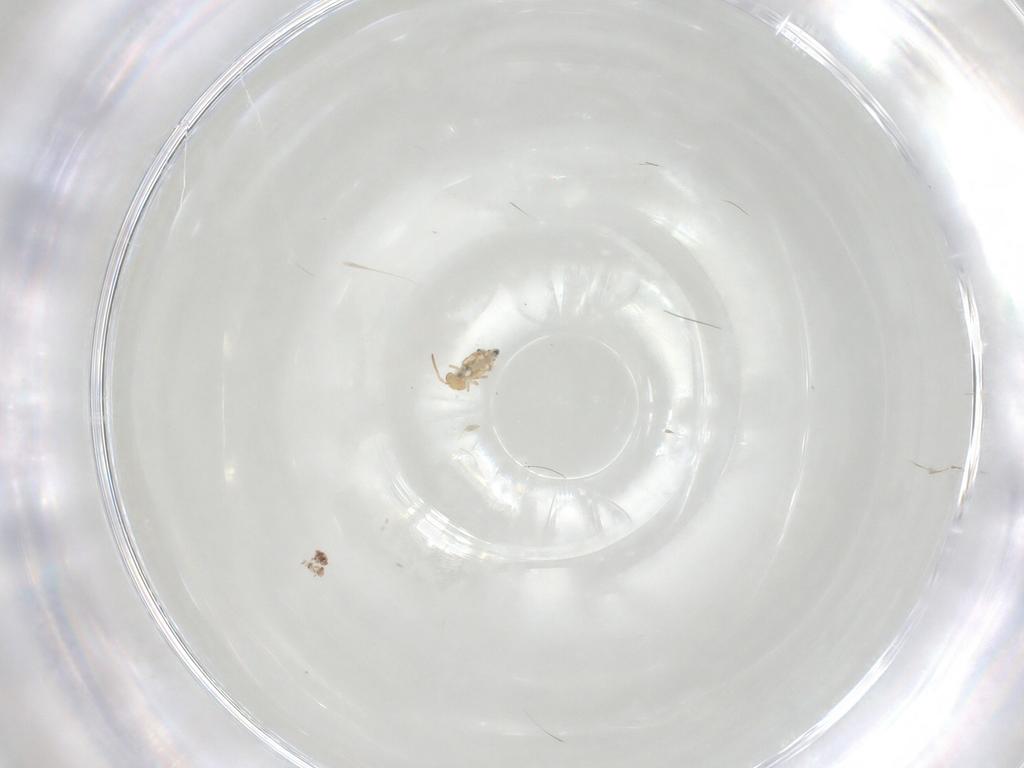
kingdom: Animalia
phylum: Arthropoda
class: Collembola
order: Symphypleona
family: Bourletiellidae
